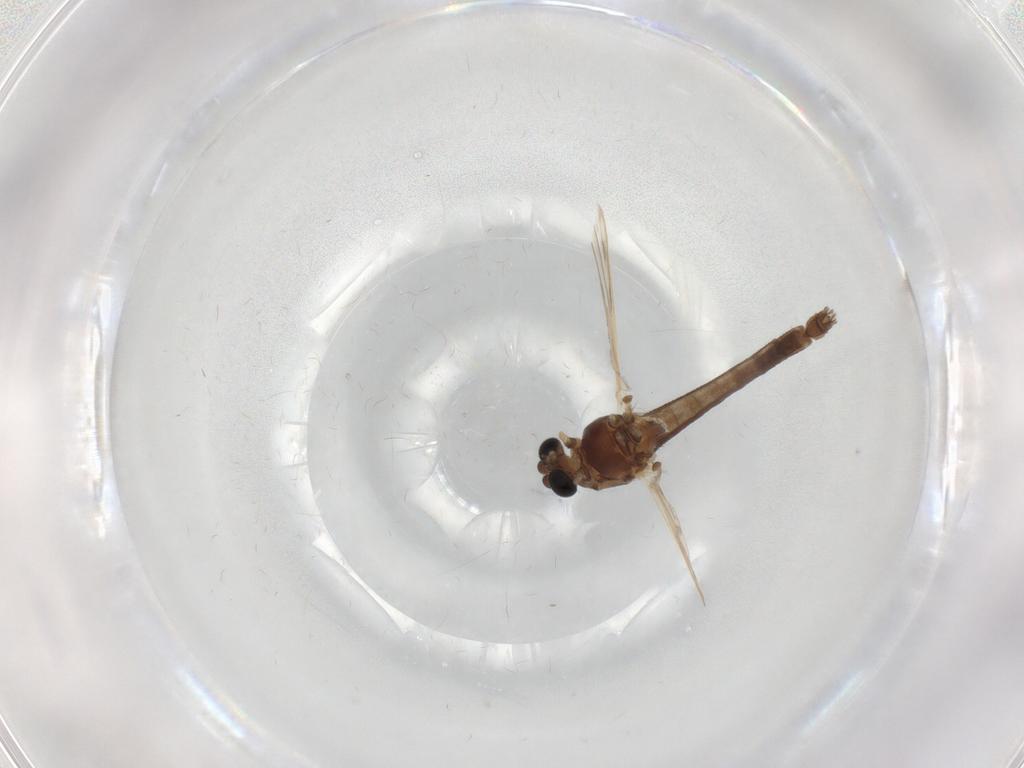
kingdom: Animalia
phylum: Arthropoda
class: Insecta
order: Diptera
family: Chironomidae
